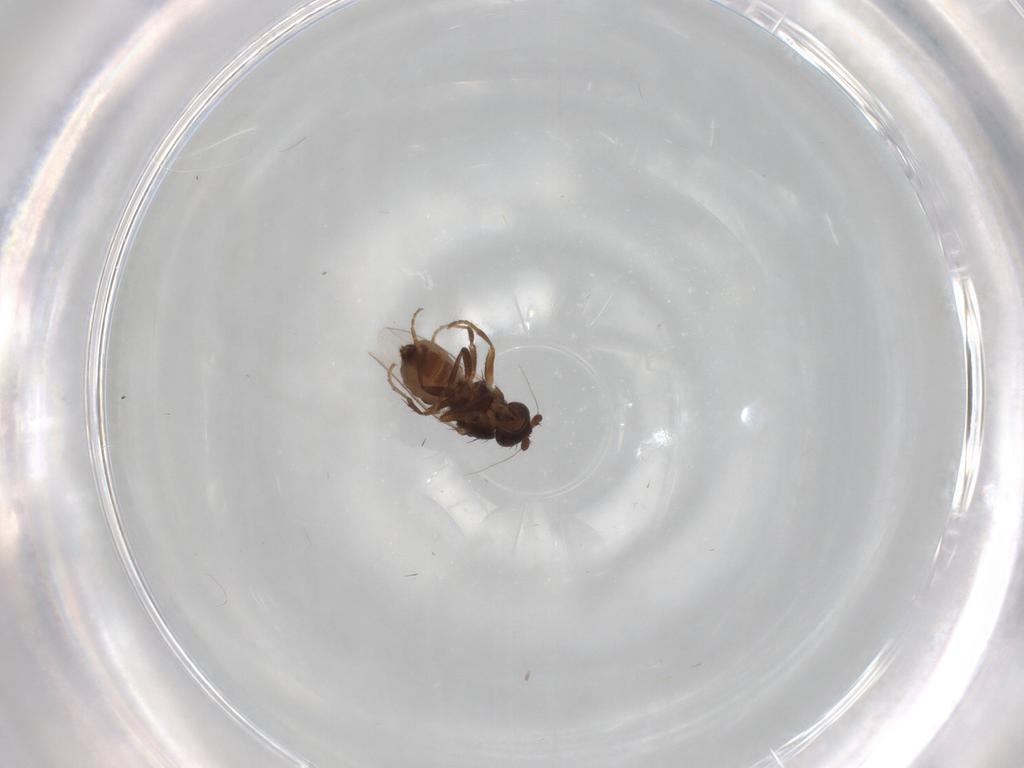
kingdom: Animalia
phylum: Arthropoda
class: Insecta
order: Diptera
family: Sphaeroceridae
